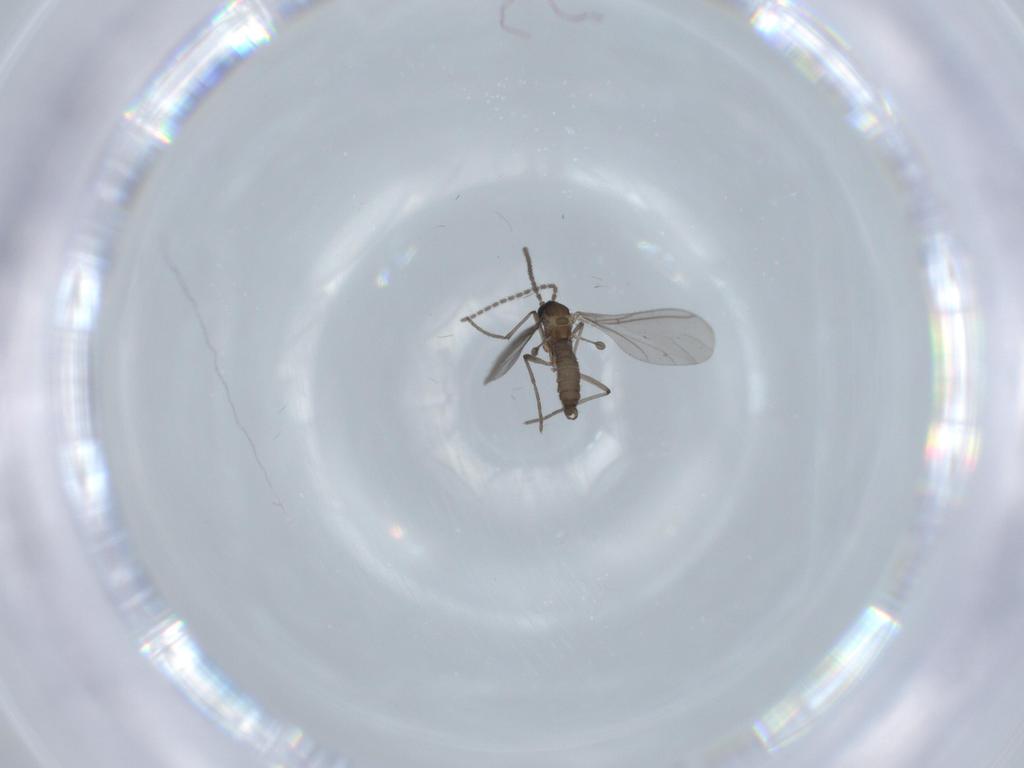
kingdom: Animalia
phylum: Arthropoda
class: Insecta
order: Diptera
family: Sciaridae
